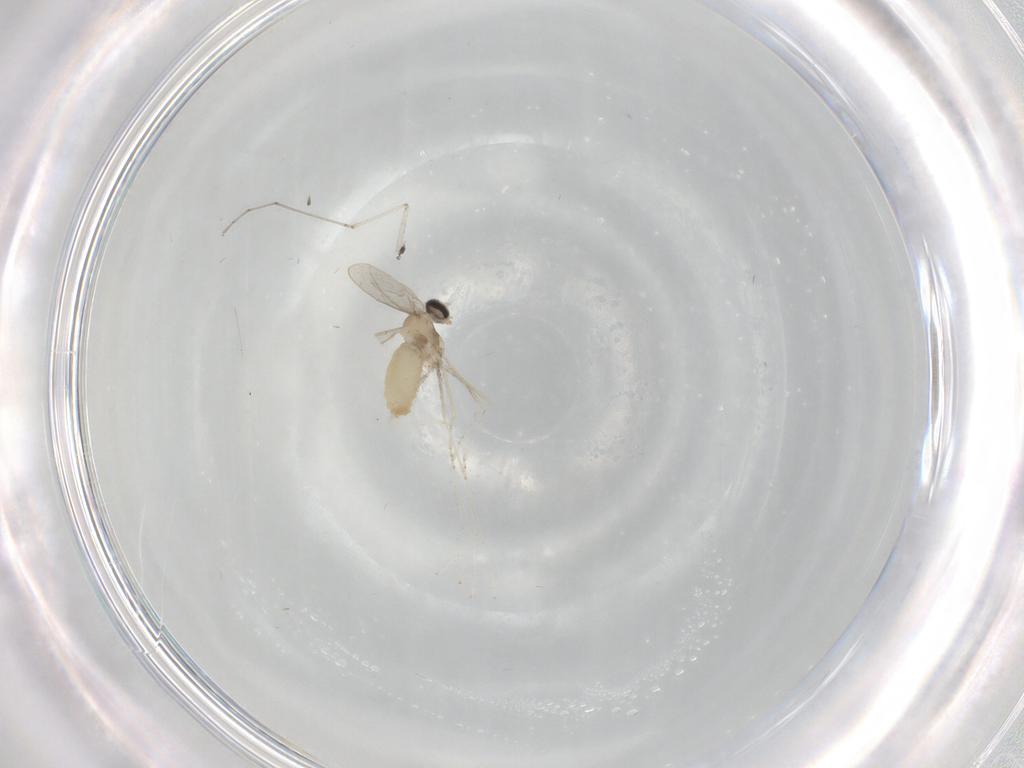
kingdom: Animalia
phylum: Arthropoda
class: Insecta
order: Diptera
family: Cecidomyiidae
